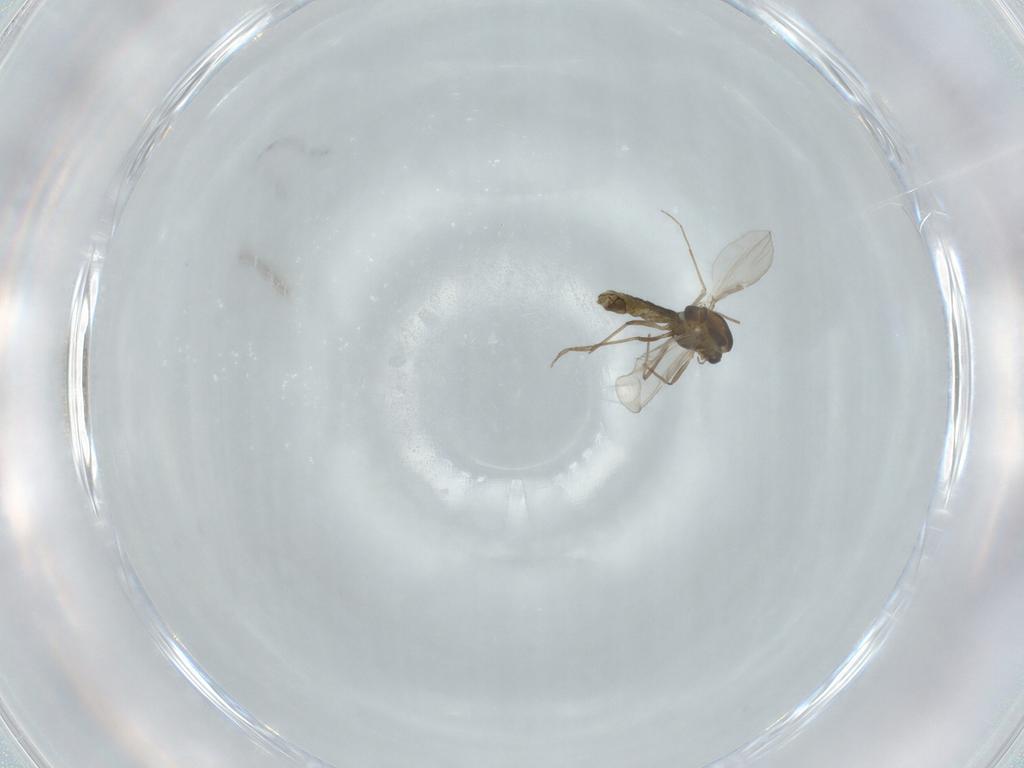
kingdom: Animalia
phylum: Arthropoda
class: Insecta
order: Diptera
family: Chironomidae
